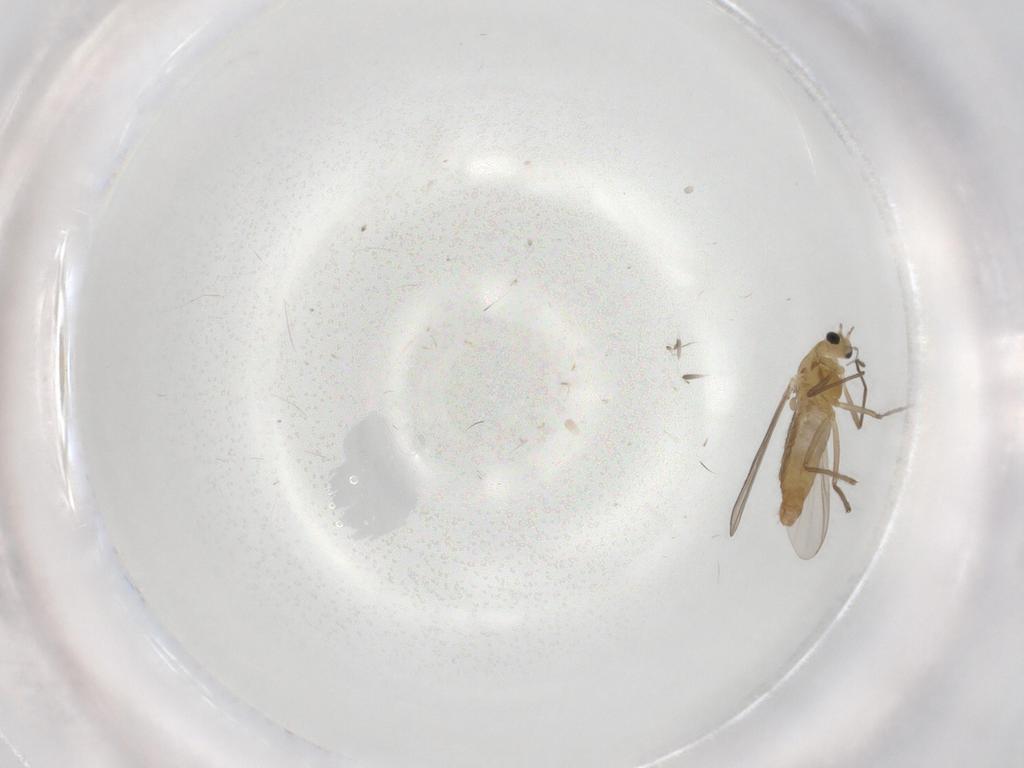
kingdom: Animalia
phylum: Arthropoda
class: Insecta
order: Diptera
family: Chironomidae
